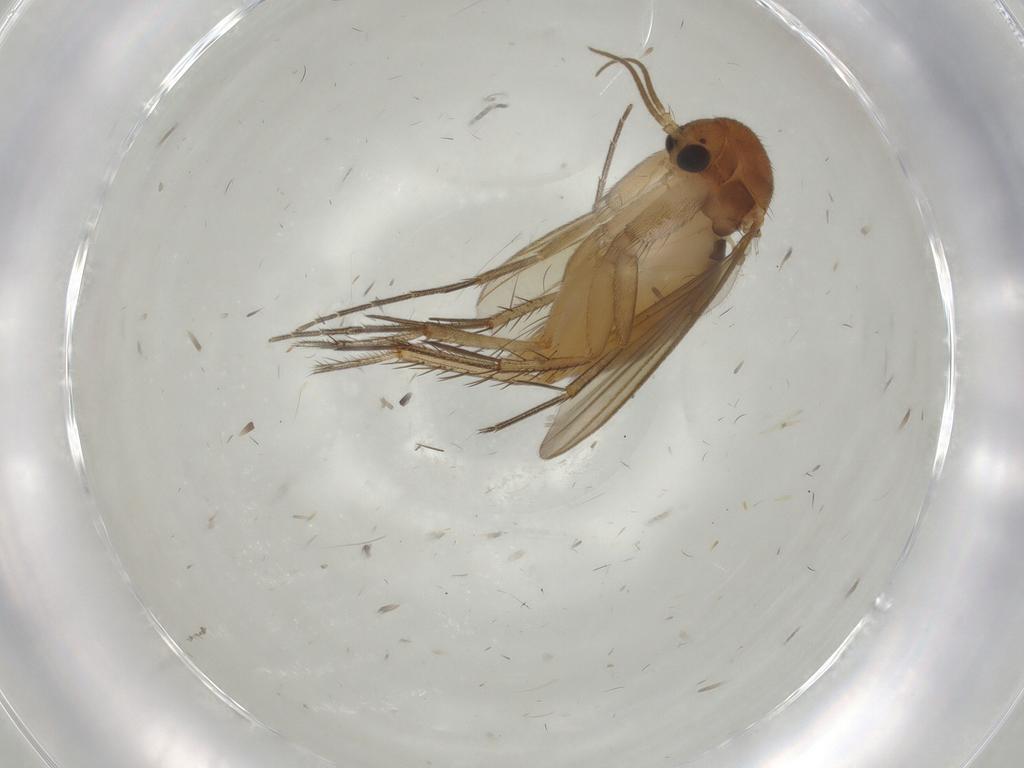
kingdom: Animalia
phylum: Arthropoda
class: Insecta
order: Diptera
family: Mycetophilidae
